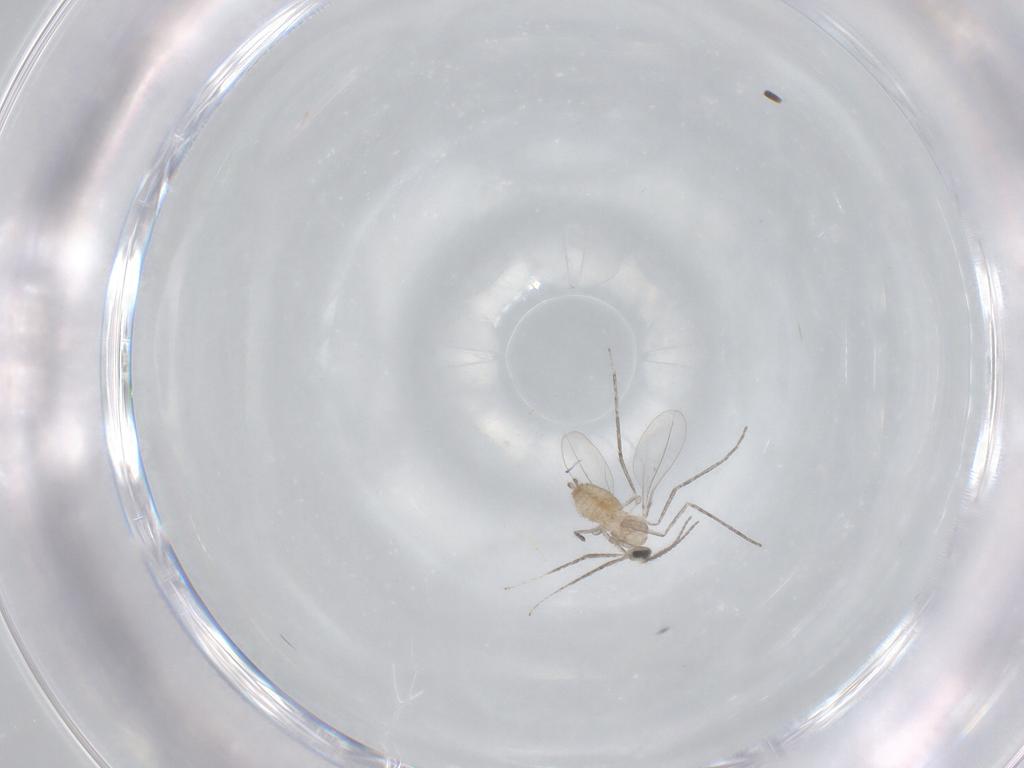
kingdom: Animalia
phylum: Arthropoda
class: Insecta
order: Diptera
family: Cecidomyiidae
